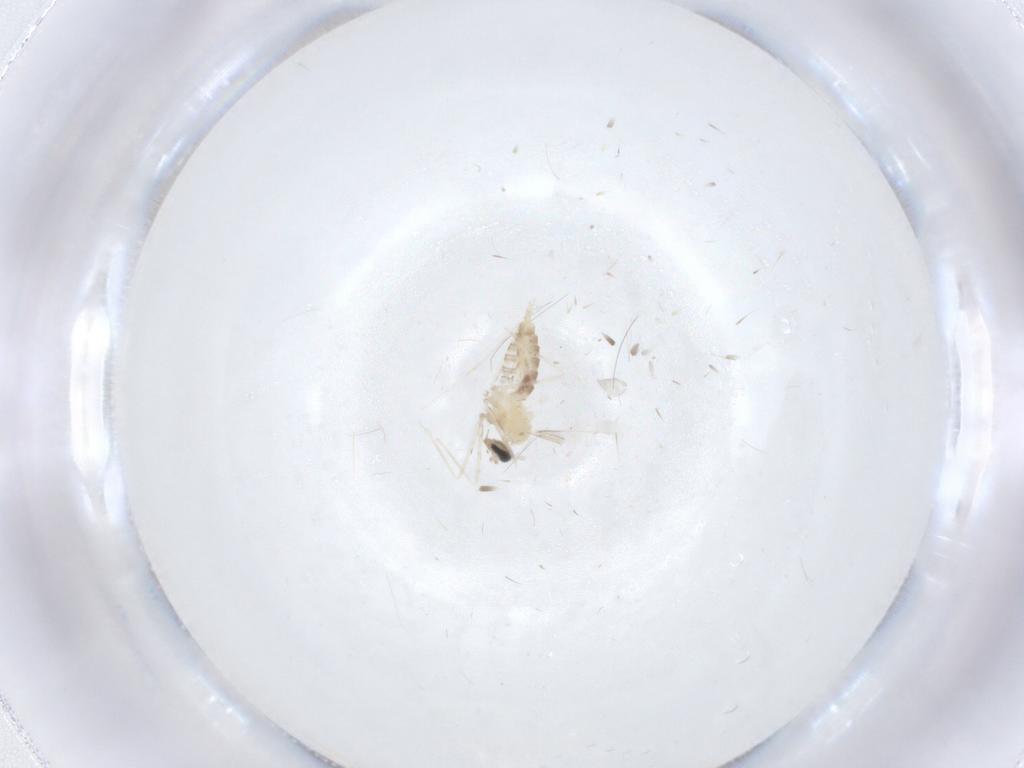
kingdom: Animalia
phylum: Arthropoda
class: Insecta
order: Diptera
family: Cecidomyiidae
